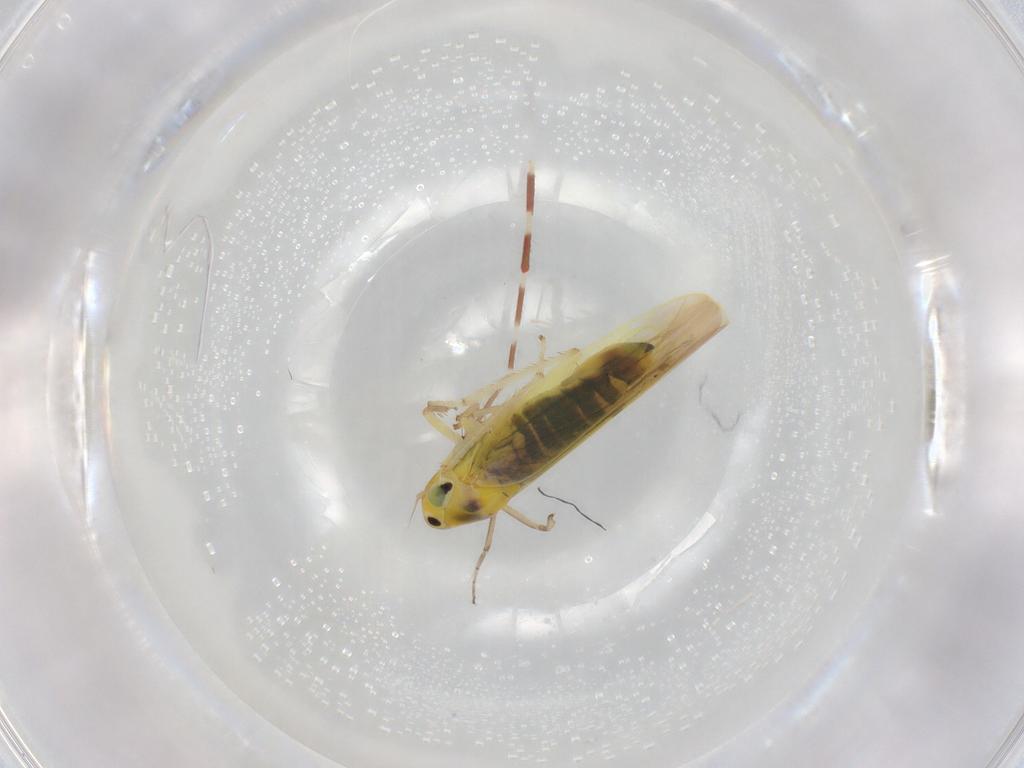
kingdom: Animalia
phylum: Arthropoda
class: Insecta
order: Hemiptera
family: Cicadellidae
